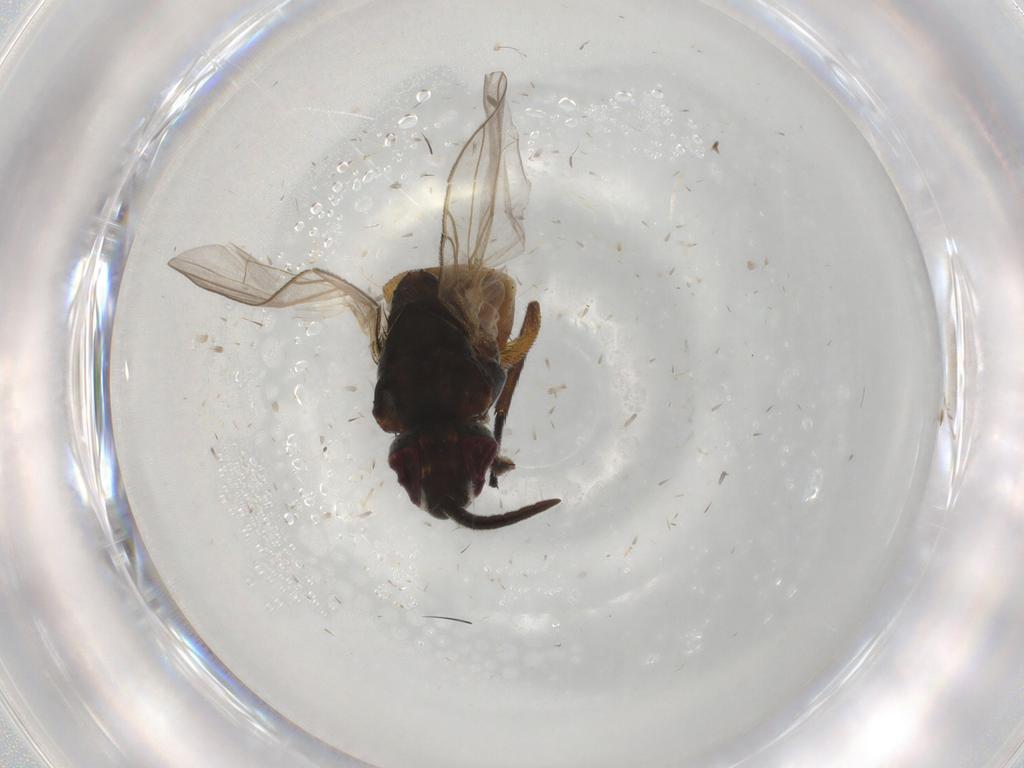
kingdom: Animalia
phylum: Arthropoda
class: Insecta
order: Diptera
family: Muscidae
